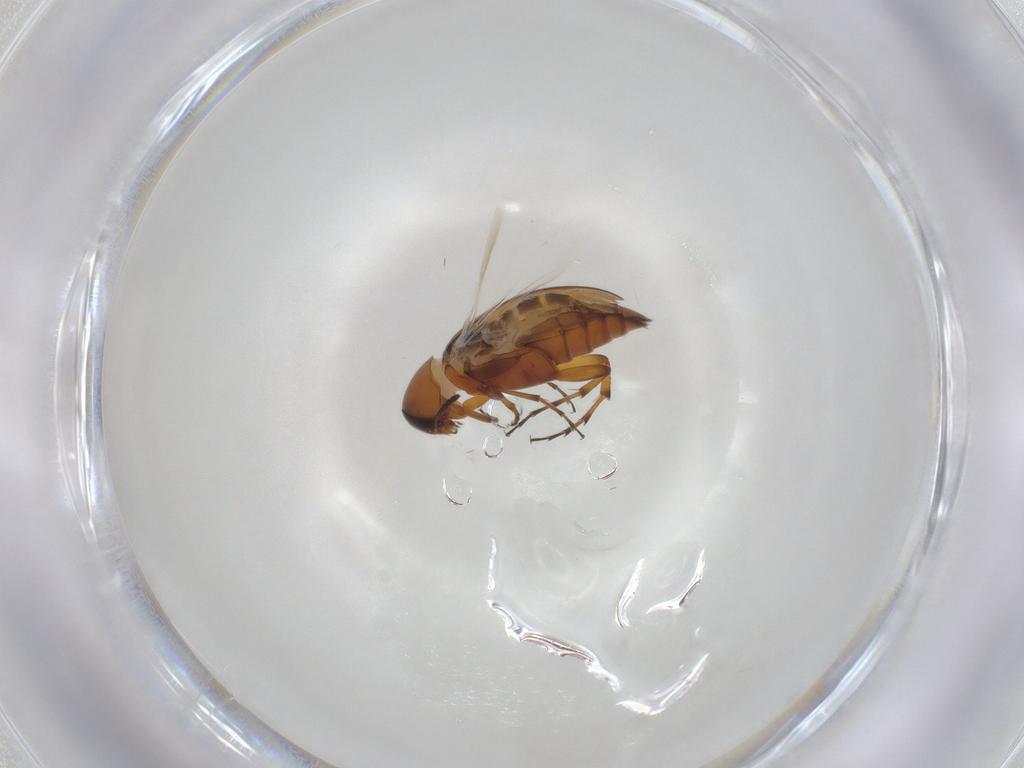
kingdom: Animalia
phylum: Arthropoda
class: Insecta
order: Coleoptera
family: Scraptiidae
